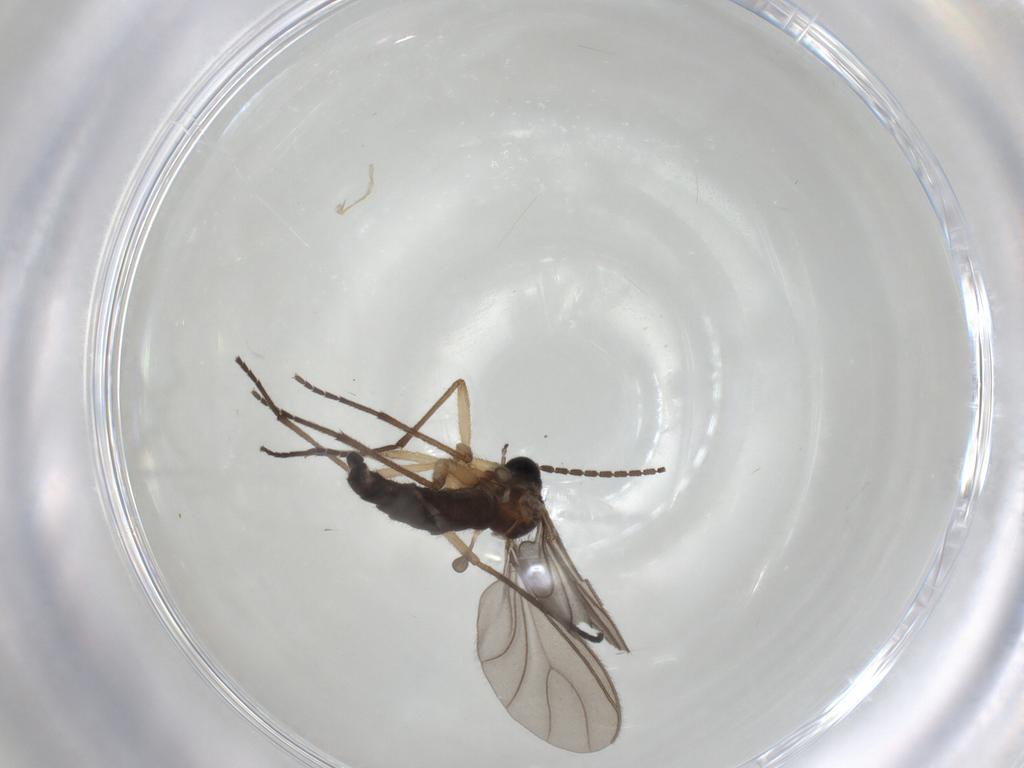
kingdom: Animalia
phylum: Arthropoda
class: Insecta
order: Diptera
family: Sciaridae
